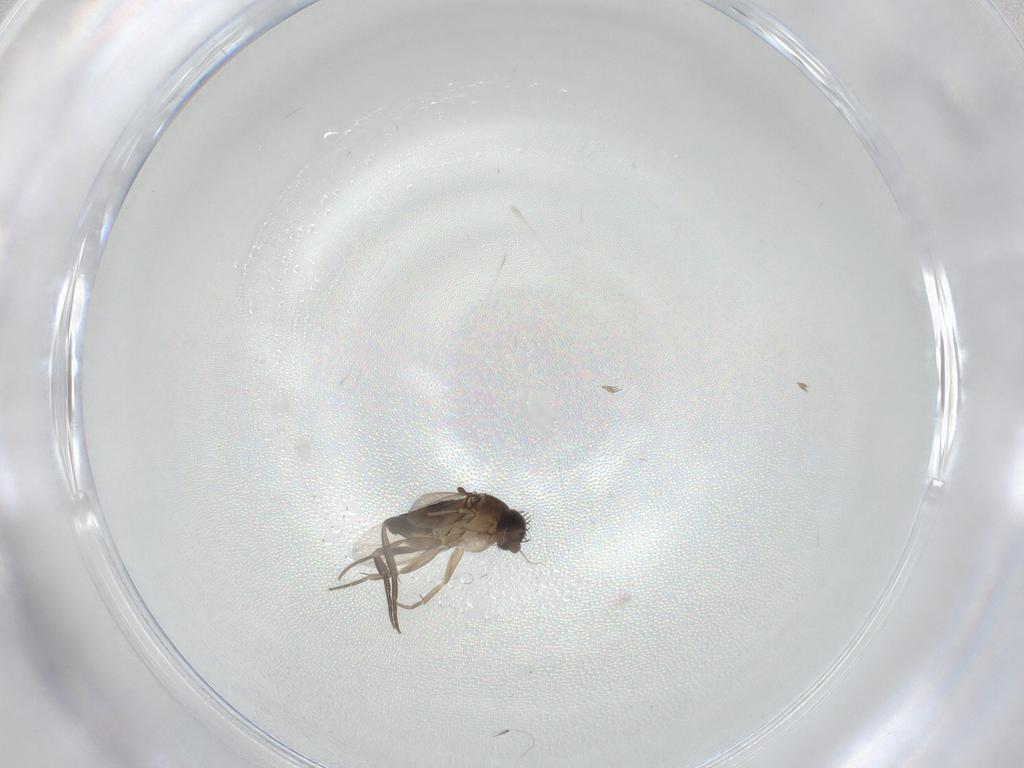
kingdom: Animalia
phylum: Arthropoda
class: Insecta
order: Diptera
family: Phoridae
